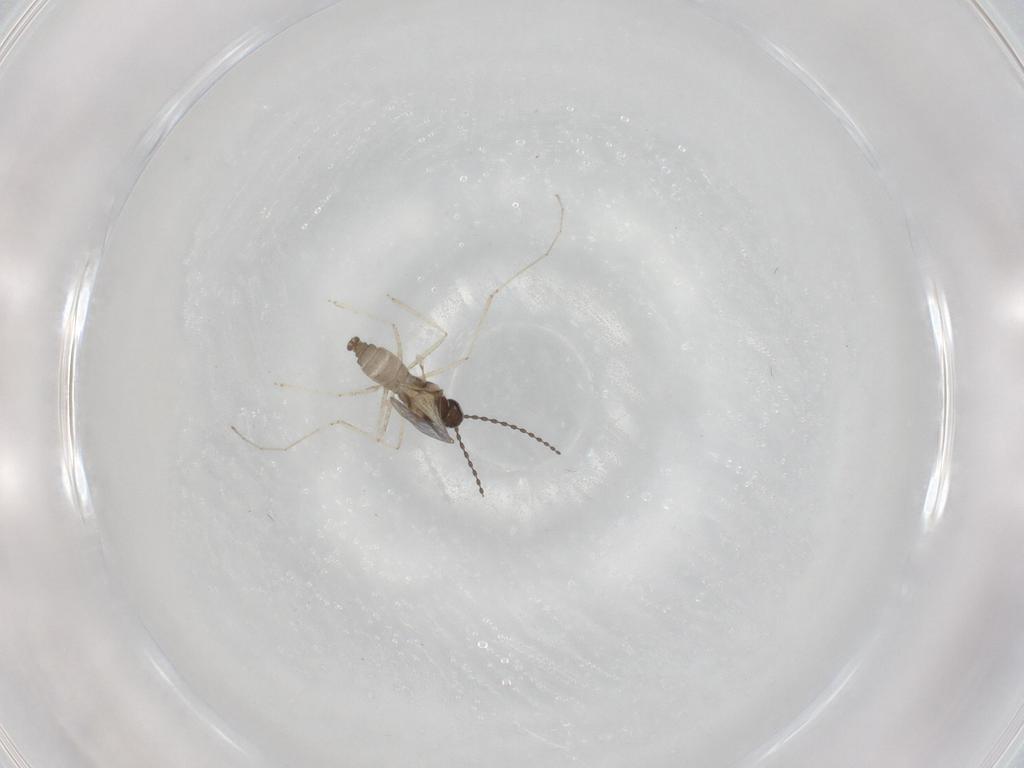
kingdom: Animalia
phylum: Arthropoda
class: Insecta
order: Diptera
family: Cecidomyiidae
